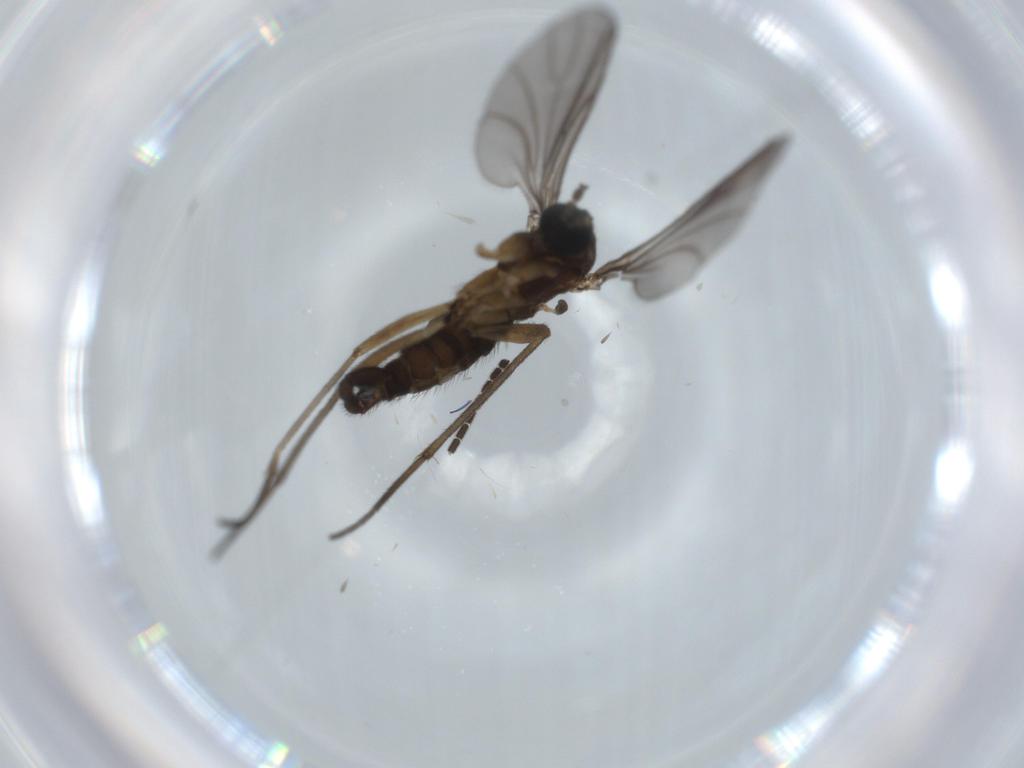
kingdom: Animalia
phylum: Arthropoda
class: Insecta
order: Diptera
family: Sciaridae
